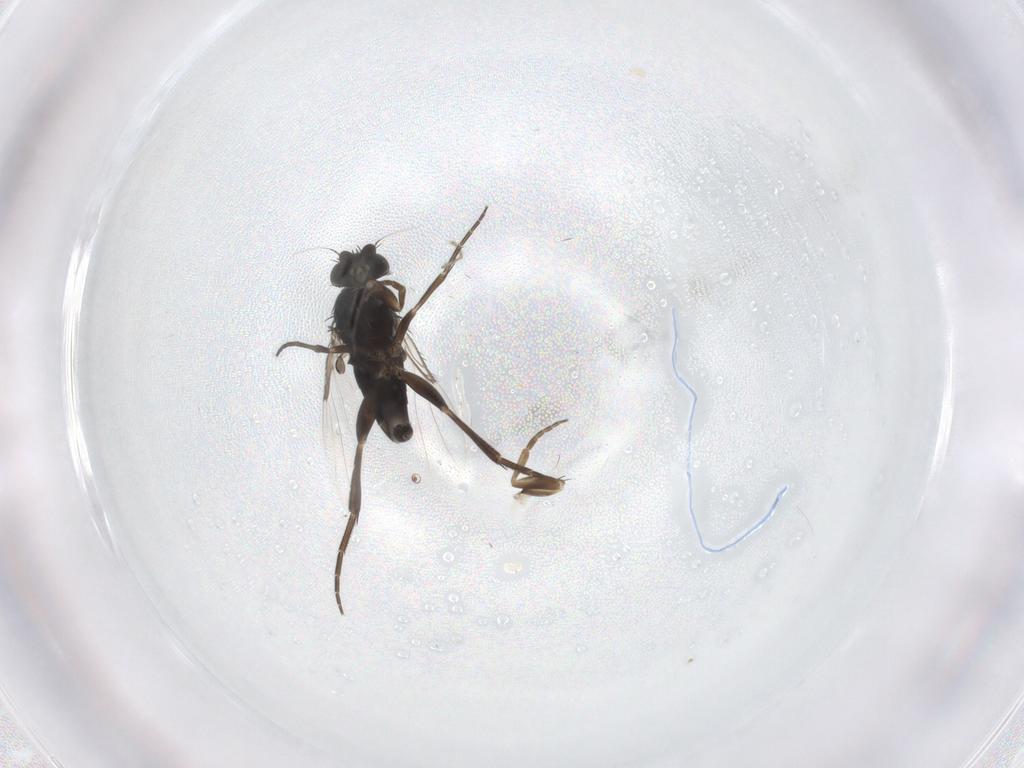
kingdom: Animalia
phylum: Arthropoda
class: Insecta
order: Diptera
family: Phoridae
